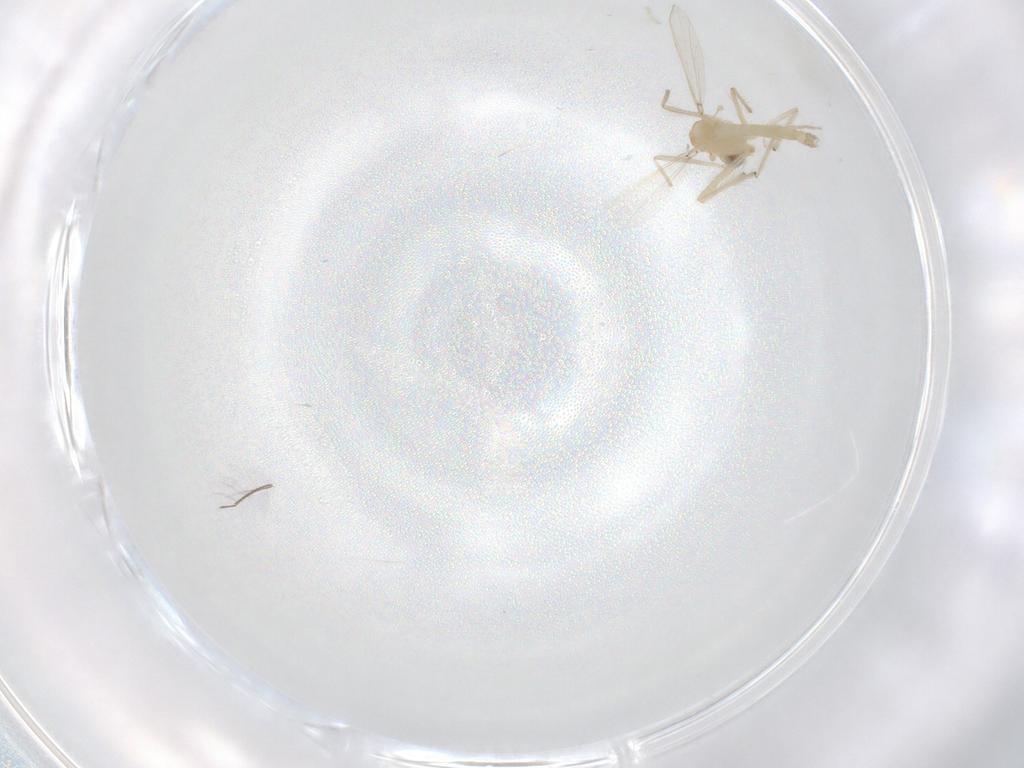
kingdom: Animalia
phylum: Arthropoda
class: Insecta
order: Diptera
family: Chironomidae
